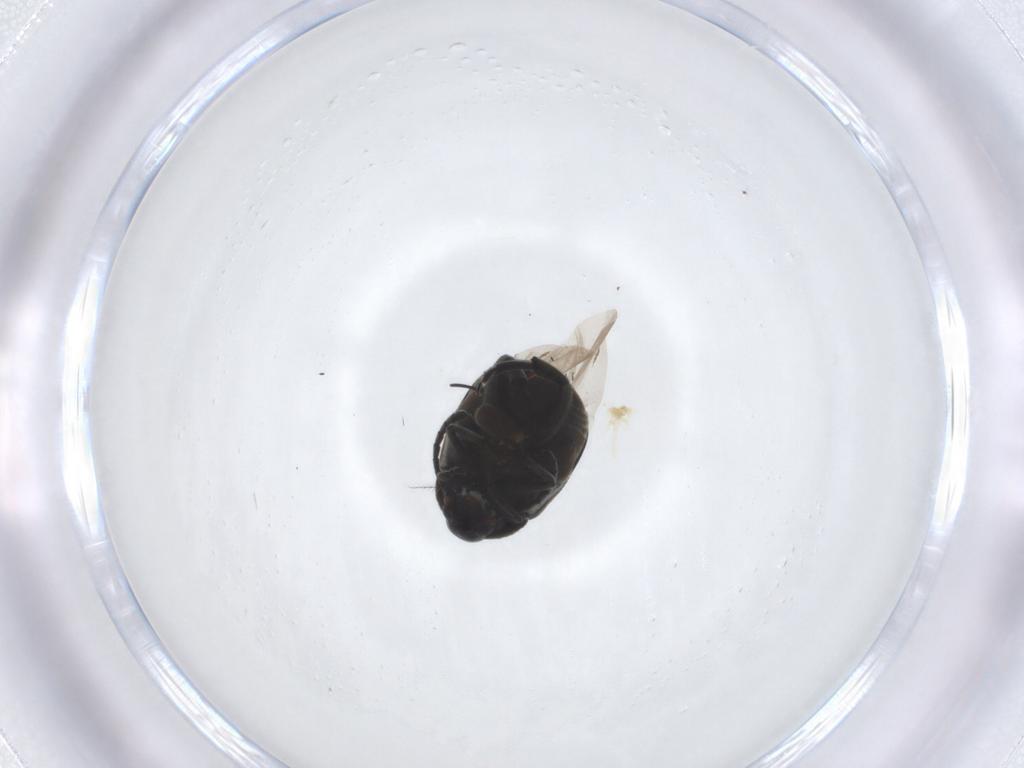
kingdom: Animalia
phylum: Arthropoda
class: Insecta
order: Coleoptera
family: Chrysomelidae
